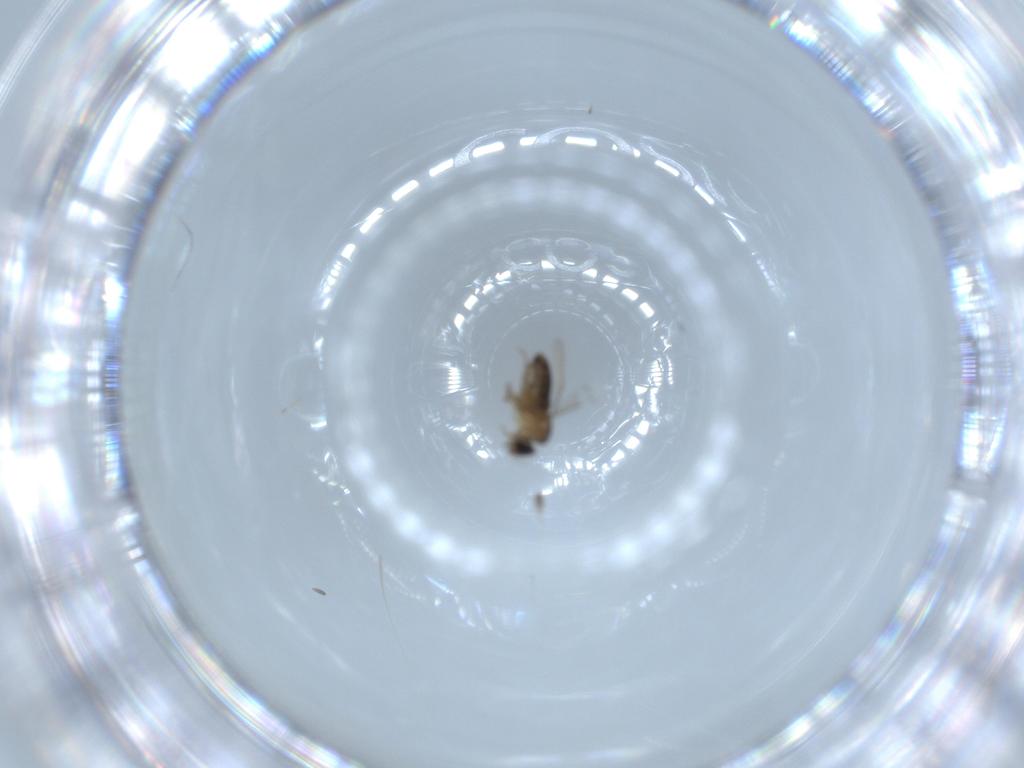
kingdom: Animalia
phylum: Arthropoda
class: Insecta
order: Diptera
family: Phoridae
